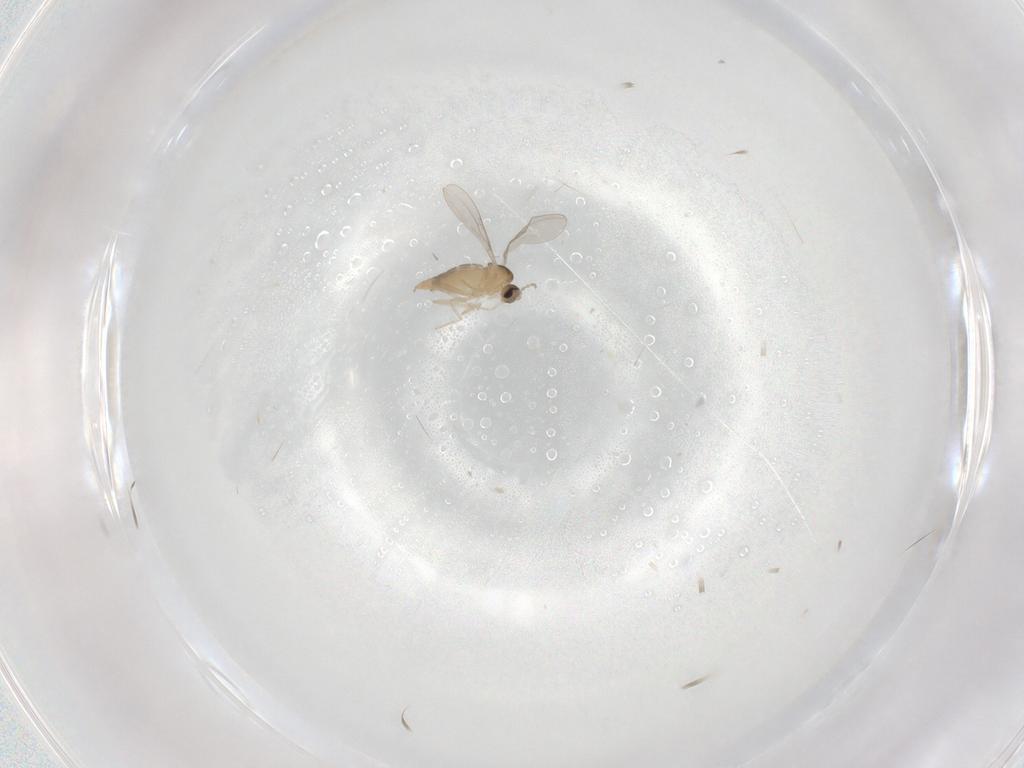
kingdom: Animalia
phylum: Arthropoda
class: Insecta
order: Diptera
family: Cecidomyiidae
